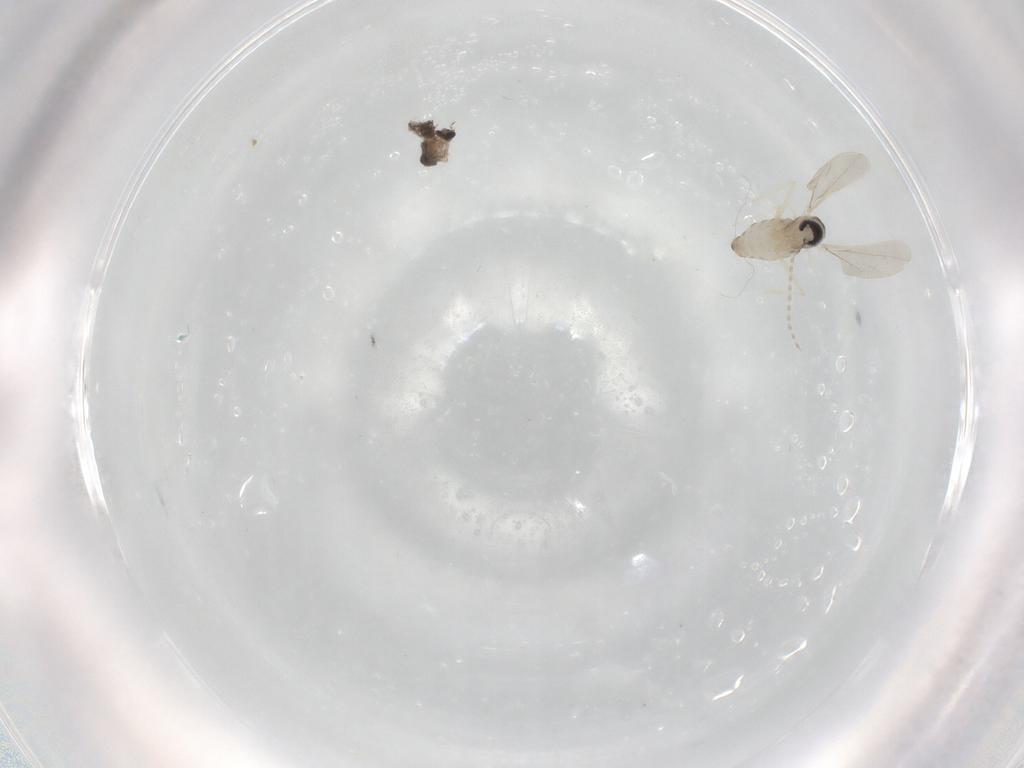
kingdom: Animalia
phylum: Arthropoda
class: Insecta
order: Diptera
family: Cecidomyiidae
